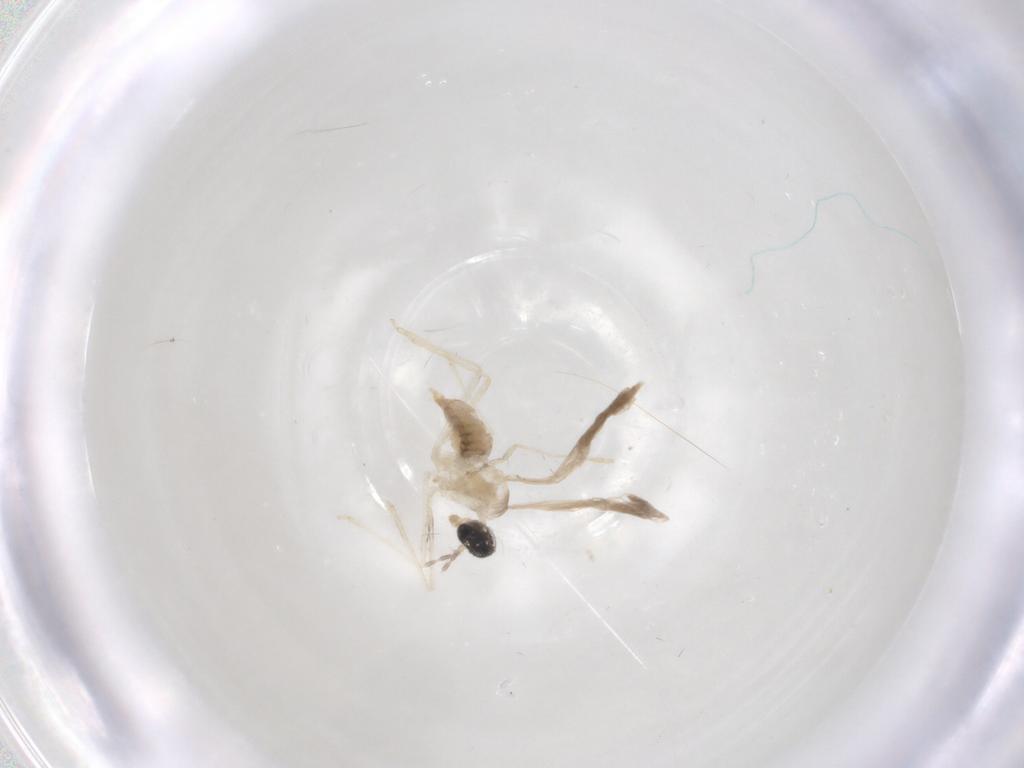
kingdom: Animalia
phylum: Arthropoda
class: Insecta
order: Diptera
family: Cecidomyiidae
